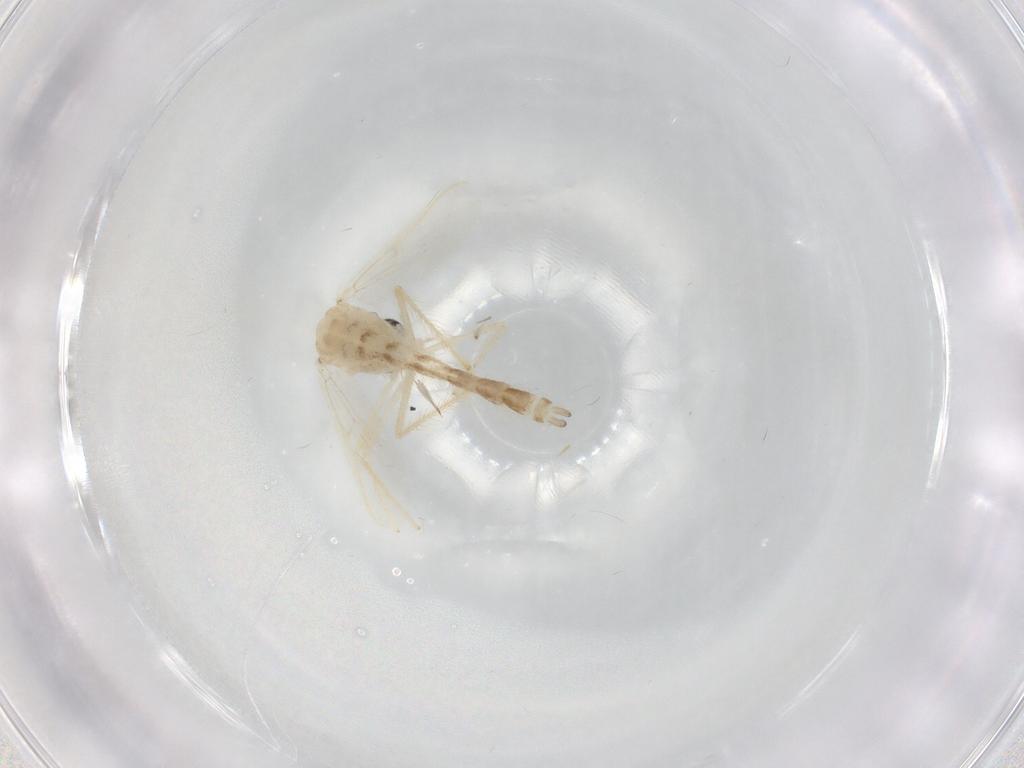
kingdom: Animalia
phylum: Arthropoda
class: Insecta
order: Diptera
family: Chironomidae
